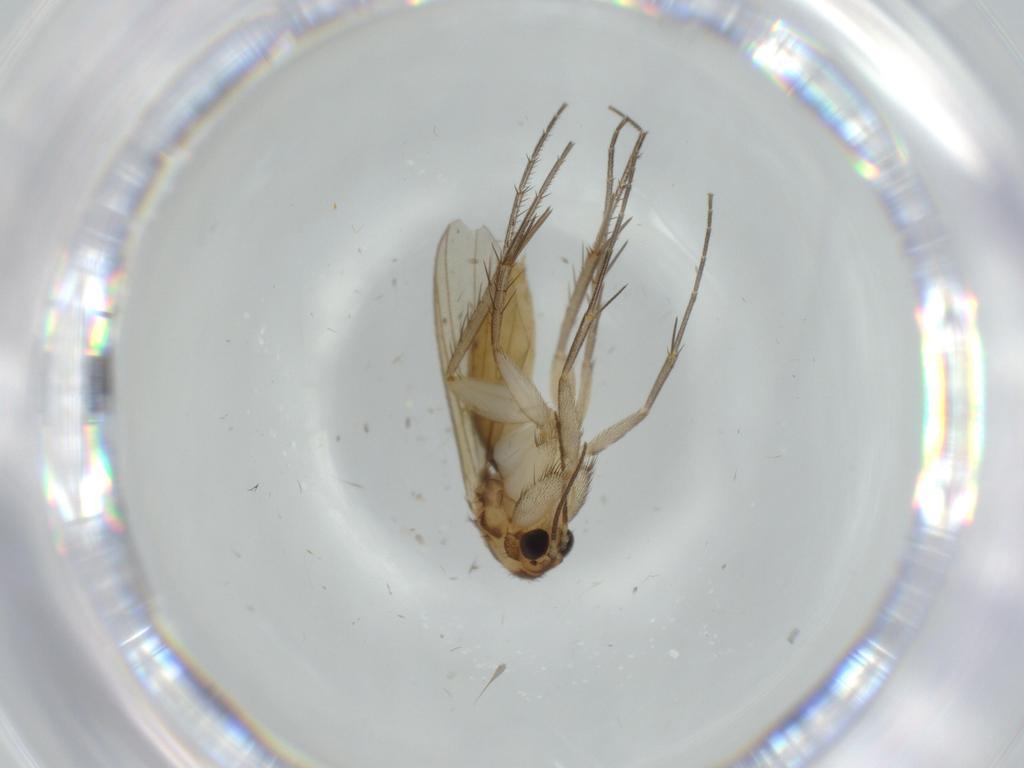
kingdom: Animalia
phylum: Arthropoda
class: Insecta
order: Diptera
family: Mycetophilidae
